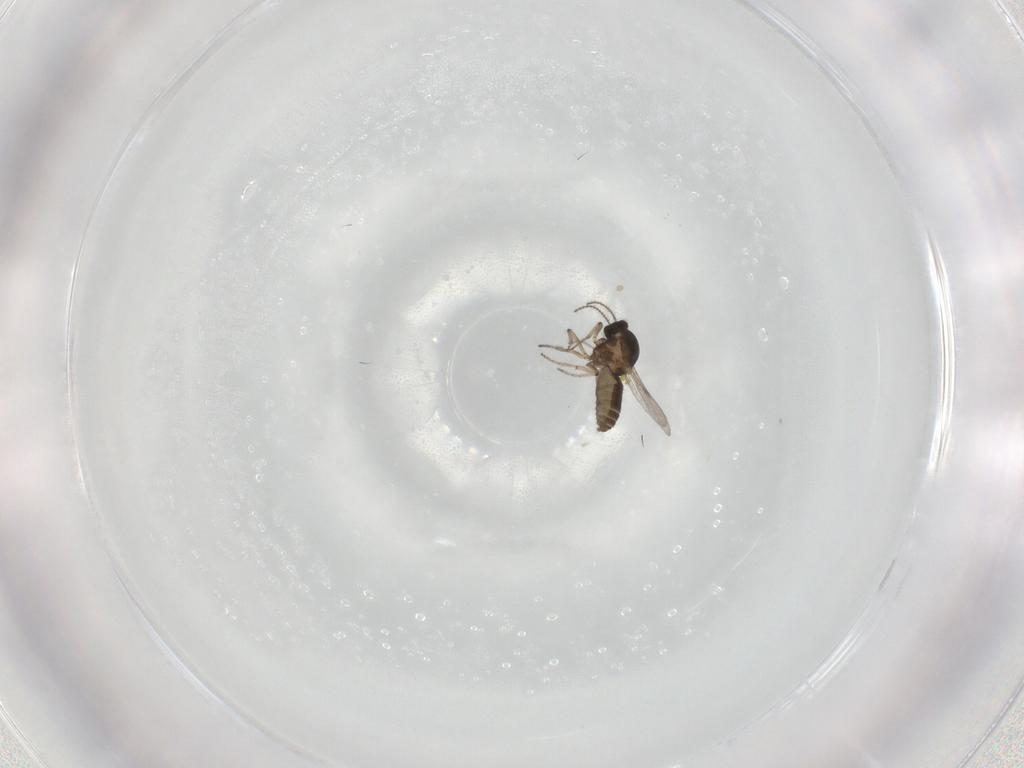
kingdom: Animalia
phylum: Arthropoda
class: Insecta
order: Diptera
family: Ceratopogonidae
